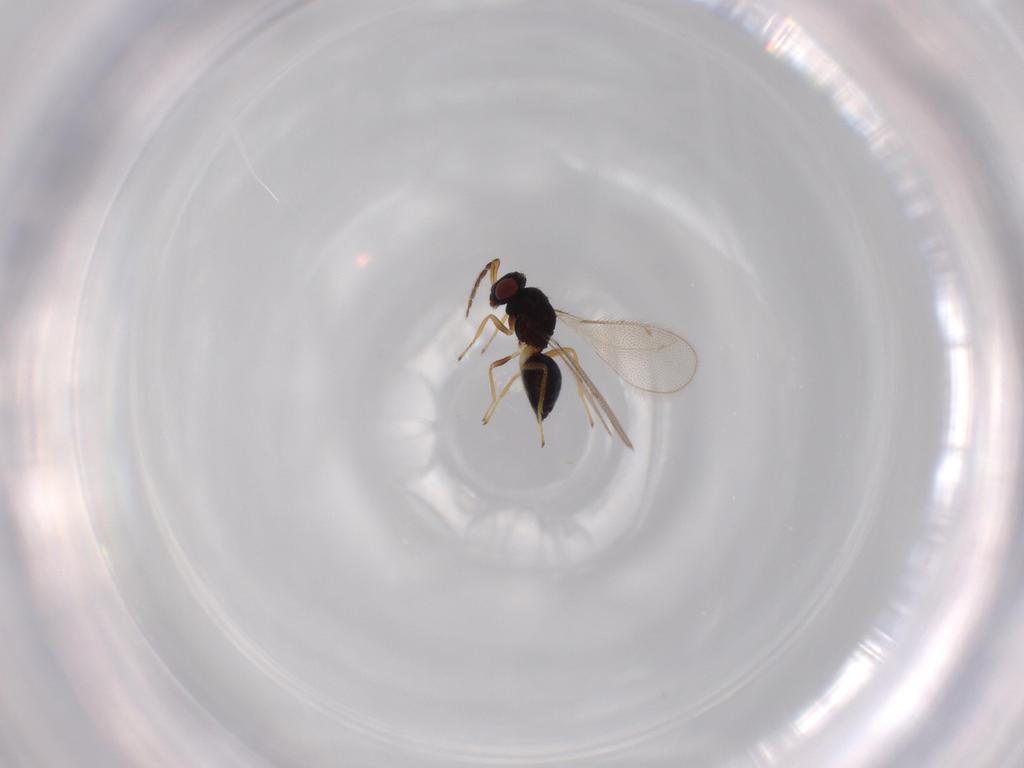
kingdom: Animalia
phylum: Arthropoda
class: Insecta
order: Hymenoptera
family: Eulophidae
